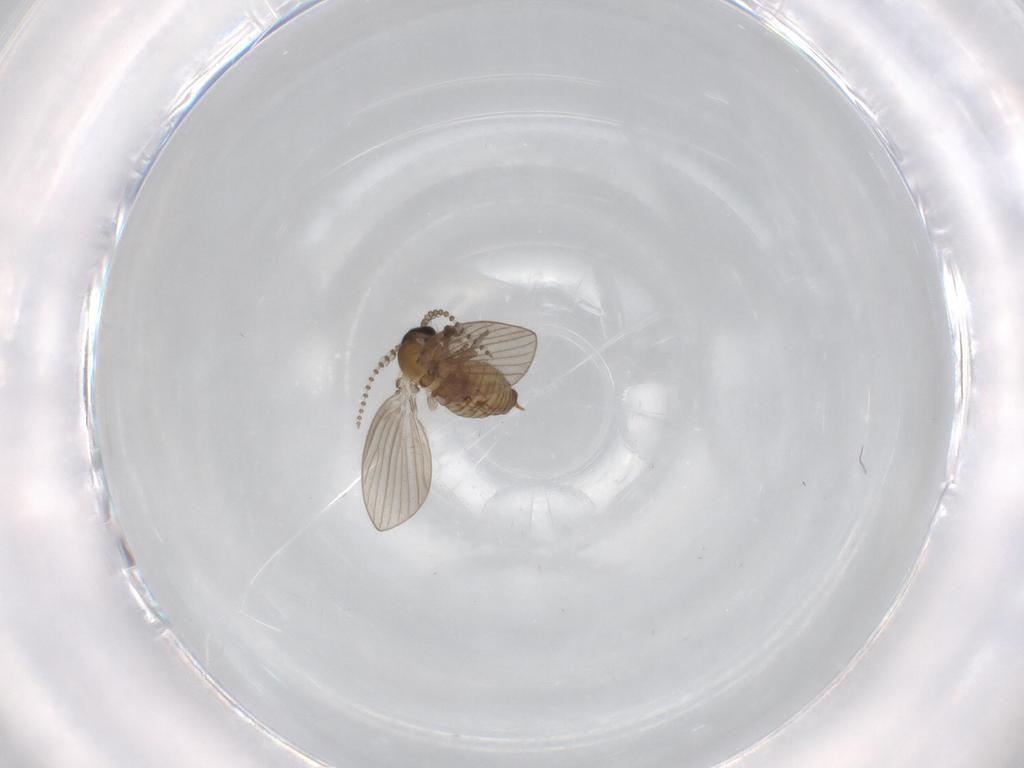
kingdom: Animalia
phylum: Arthropoda
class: Insecta
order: Diptera
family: Psychodidae
